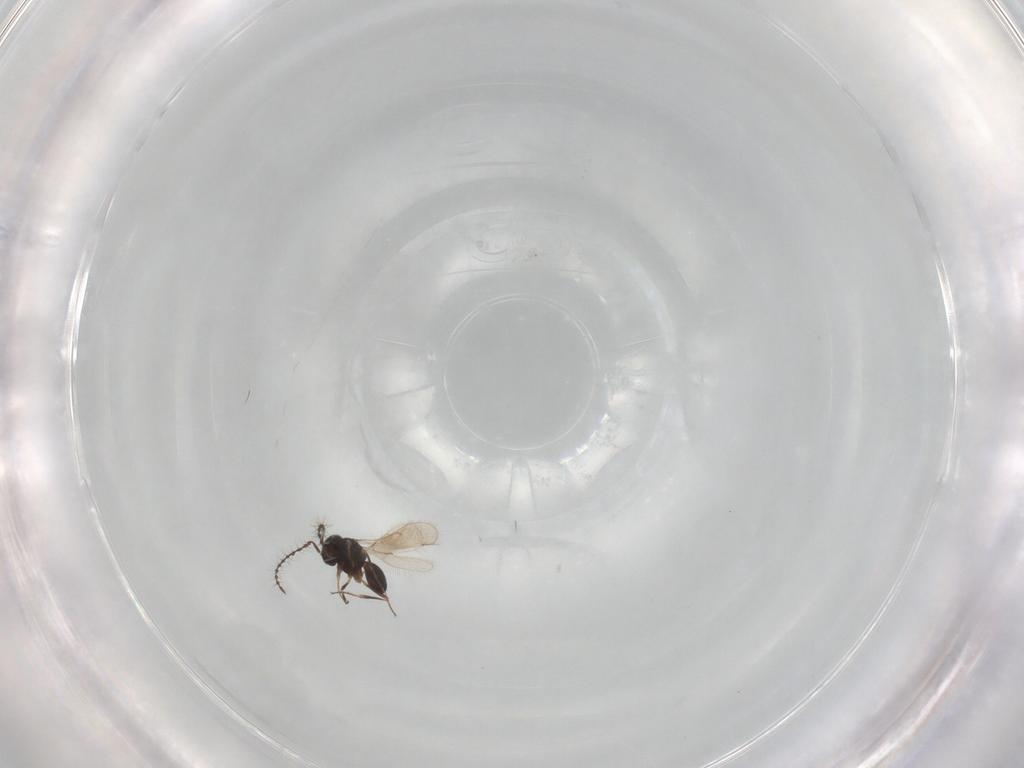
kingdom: Animalia
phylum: Arthropoda
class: Insecta
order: Hymenoptera
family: Scelionidae
